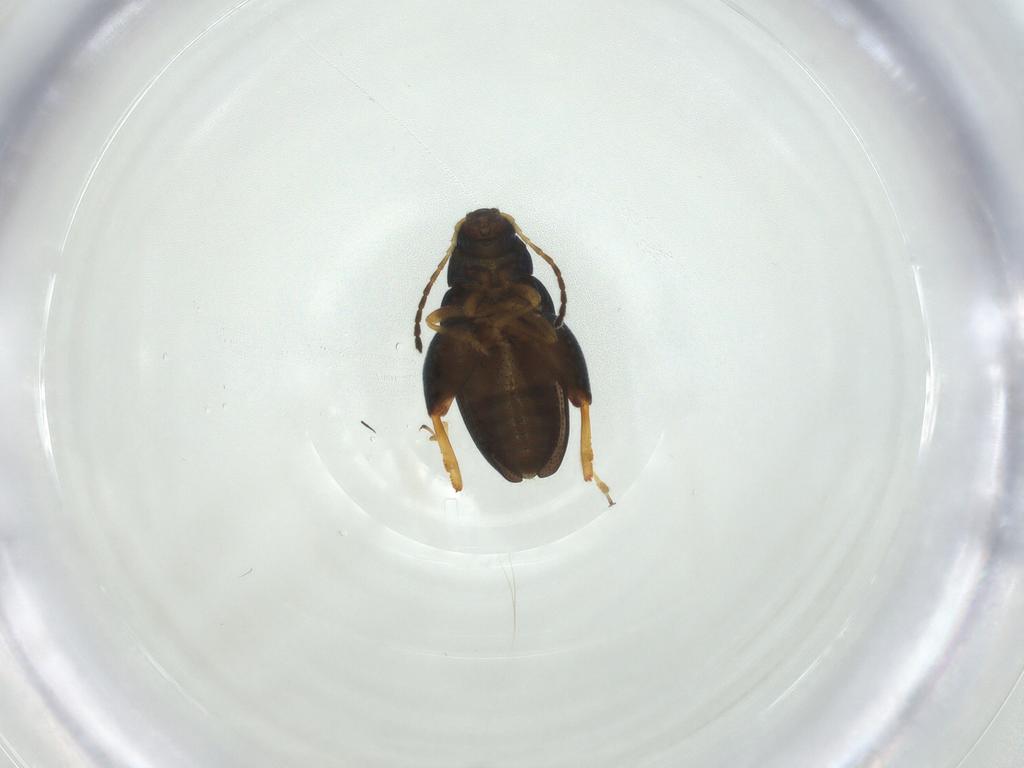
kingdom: Animalia
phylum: Arthropoda
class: Insecta
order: Coleoptera
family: Chrysomelidae
